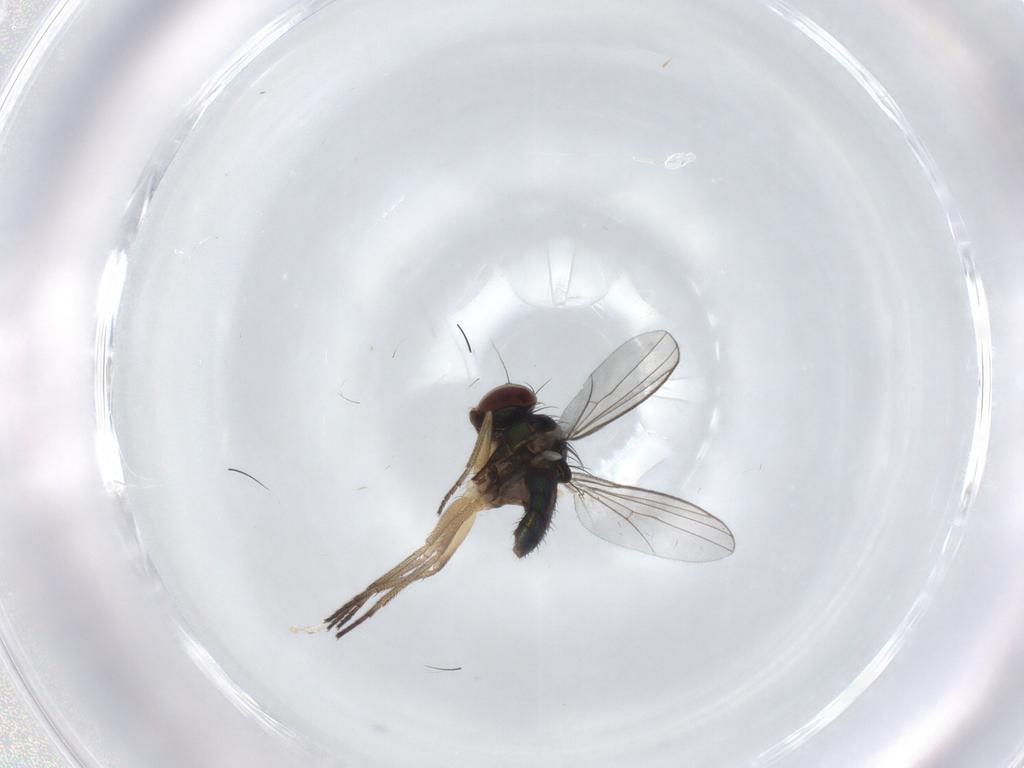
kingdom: Animalia
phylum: Arthropoda
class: Insecta
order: Diptera
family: Dolichopodidae
